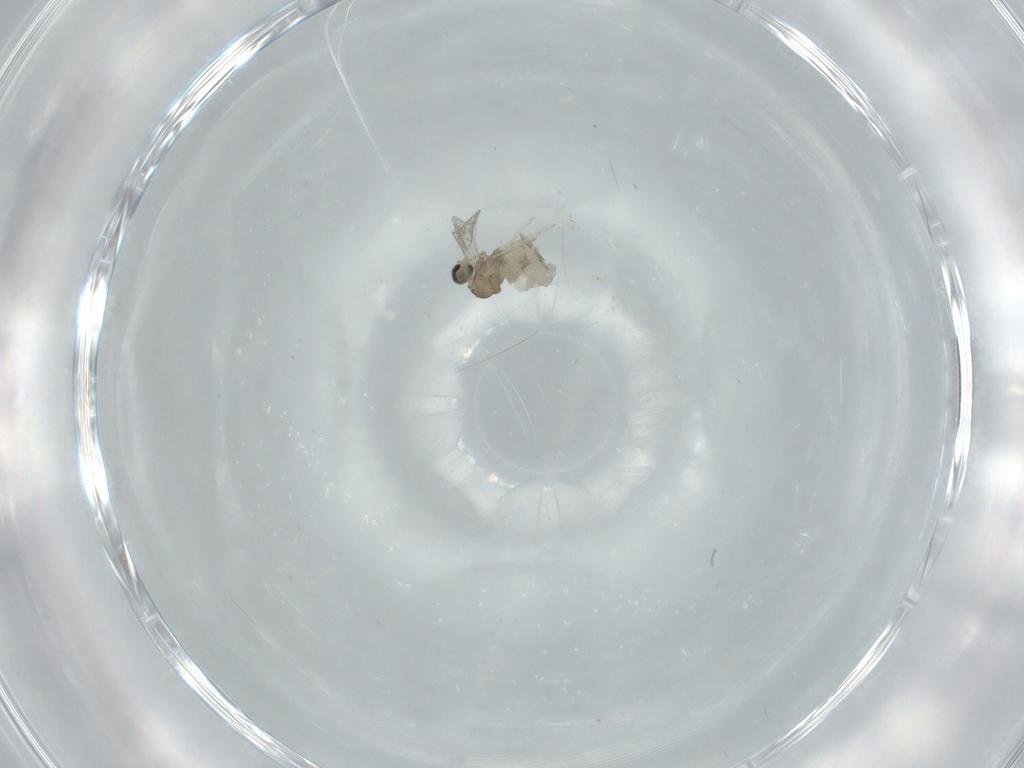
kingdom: Animalia
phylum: Arthropoda
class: Insecta
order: Diptera
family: Cecidomyiidae
